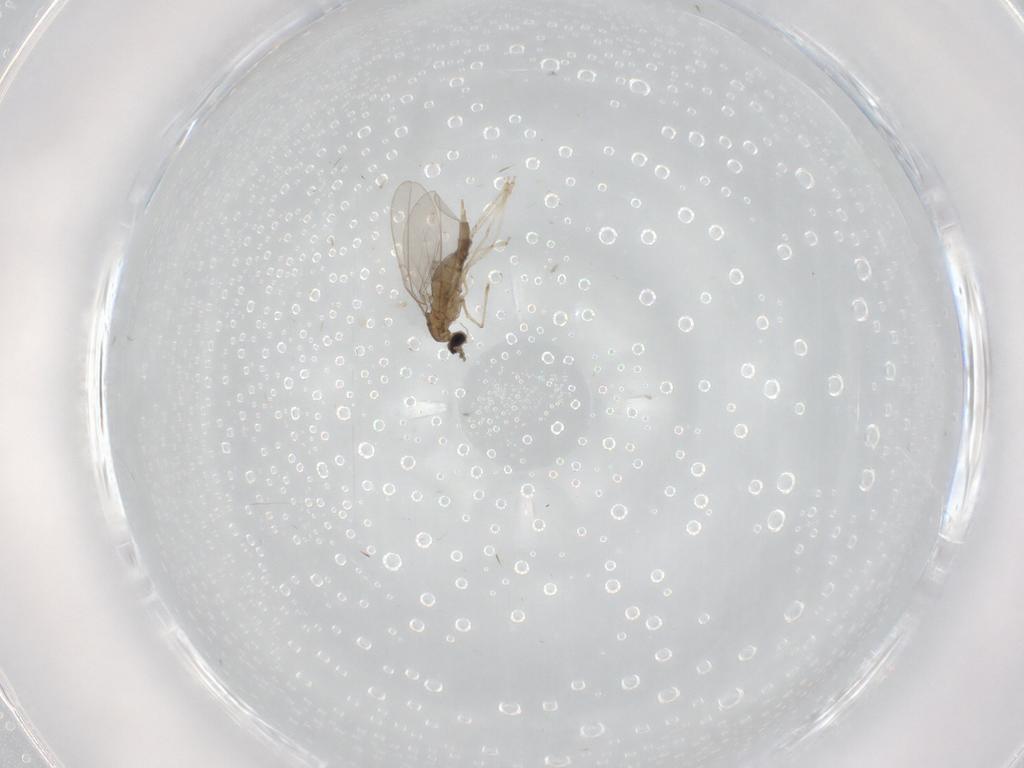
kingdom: Animalia
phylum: Arthropoda
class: Insecta
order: Diptera
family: Cecidomyiidae
